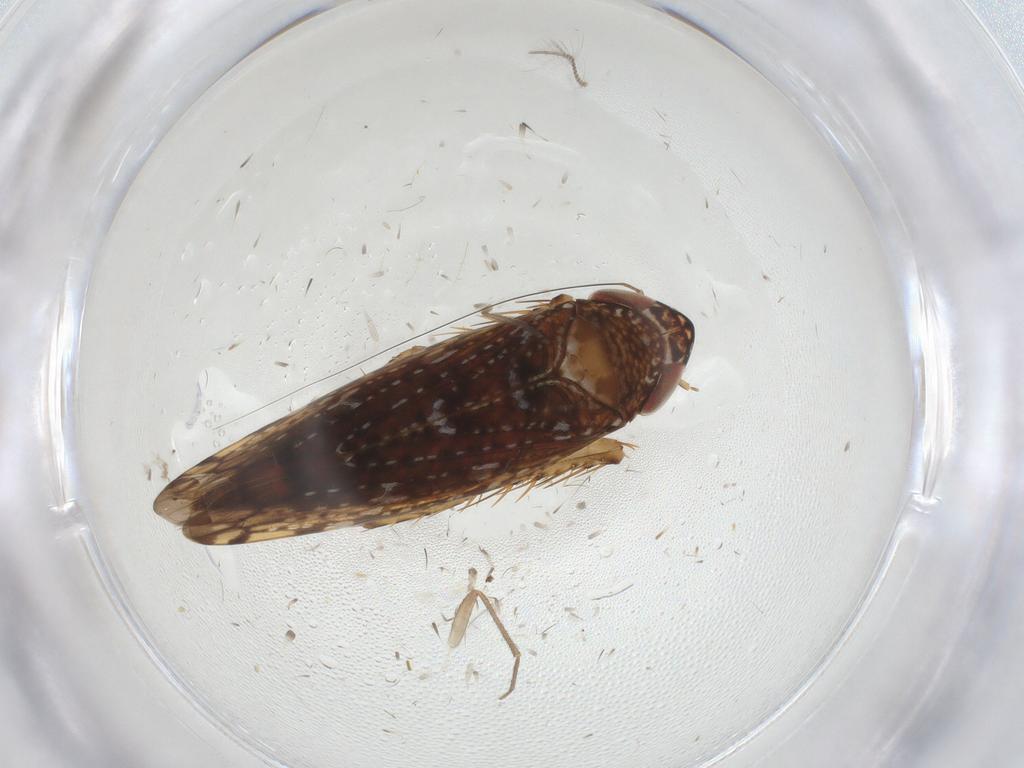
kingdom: Animalia
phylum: Arthropoda
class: Insecta
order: Hemiptera
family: Cicadellidae
